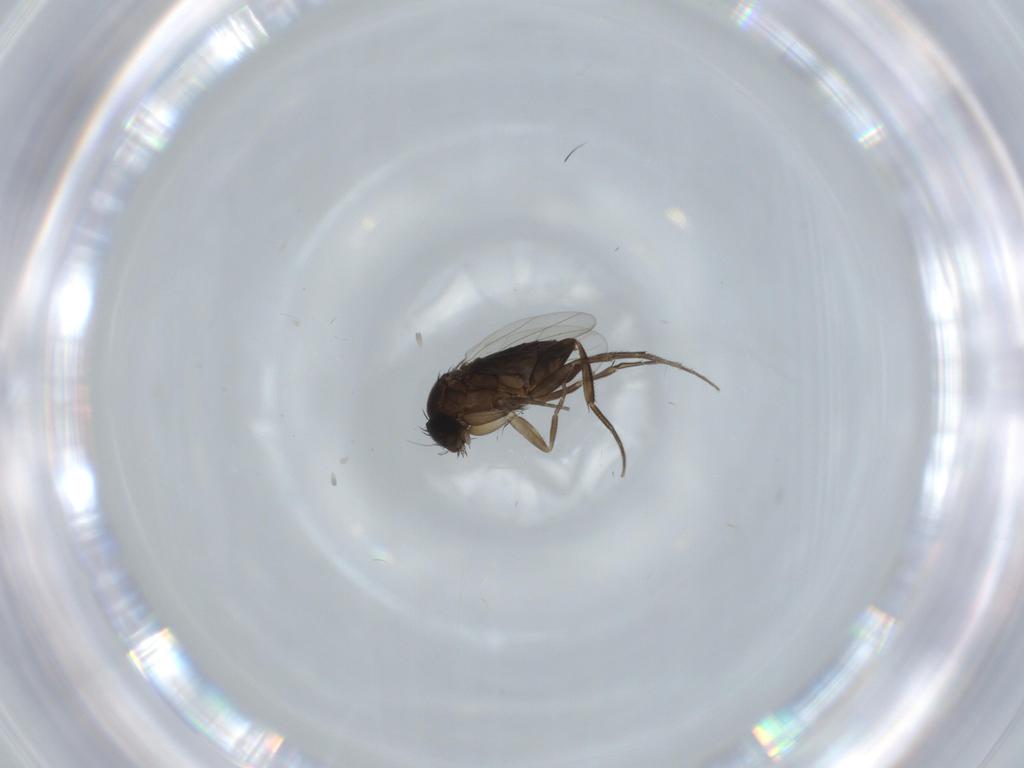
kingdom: Animalia
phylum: Arthropoda
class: Insecta
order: Diptera
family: Phoridae
